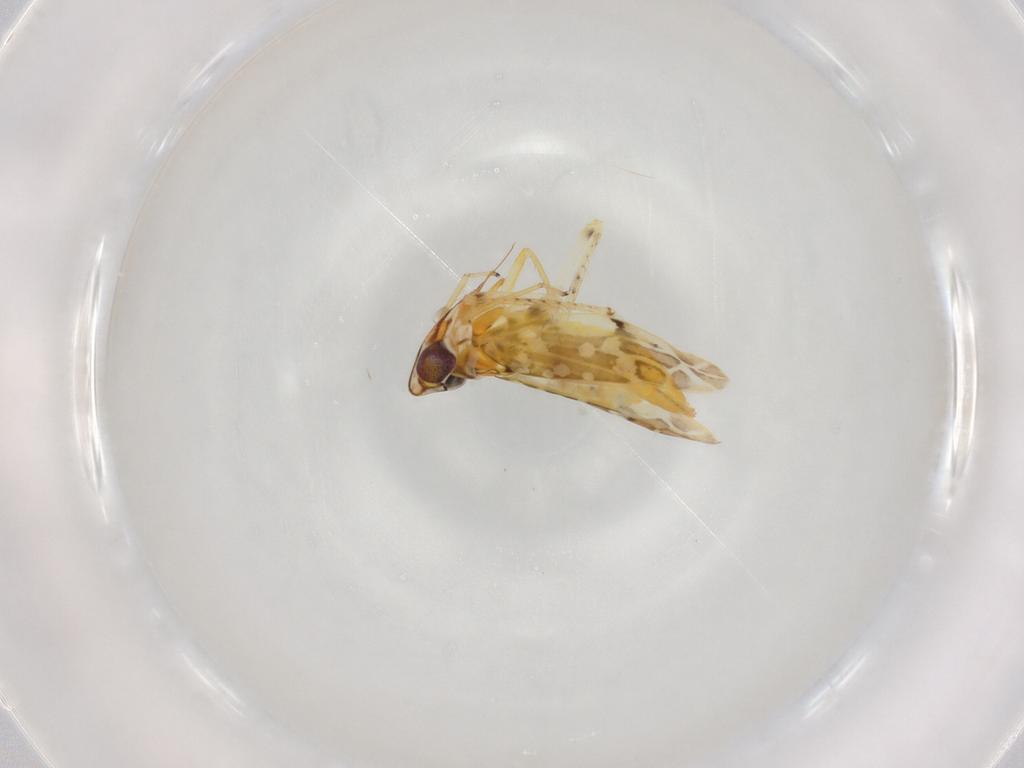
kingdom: Animalia
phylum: Arthropoda
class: Insecta
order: Hemiptera
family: Cicadellidae
